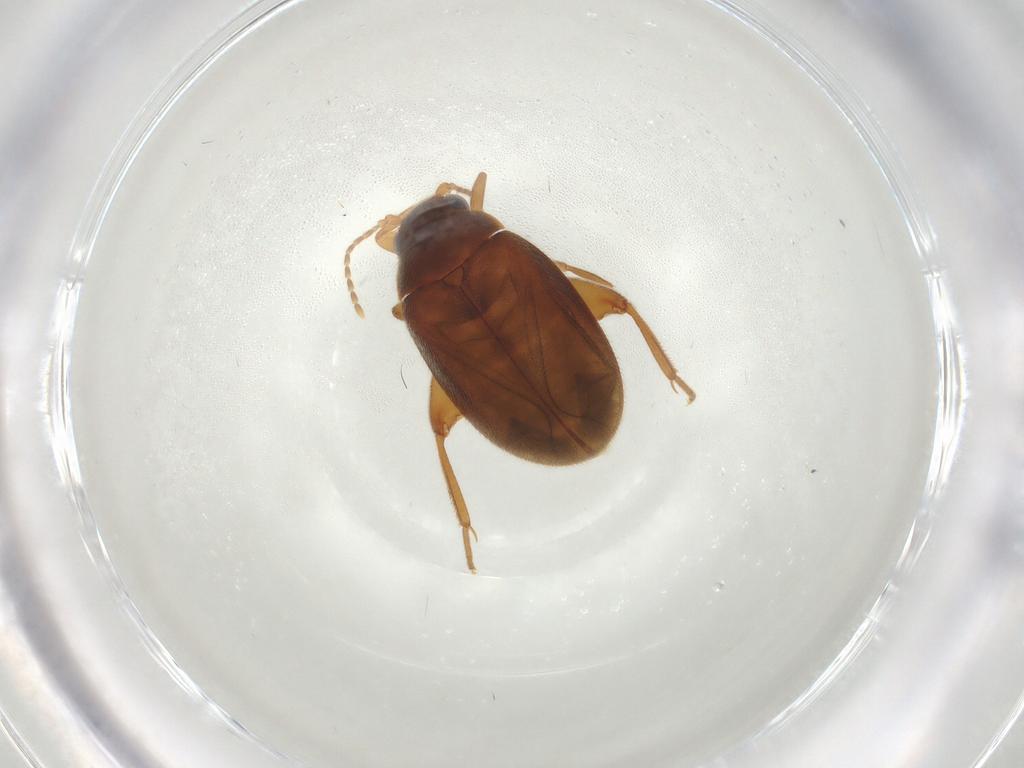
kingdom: Animalia
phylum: Arthropoda
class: Insecta
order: Coleoptera
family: Scirtidae
